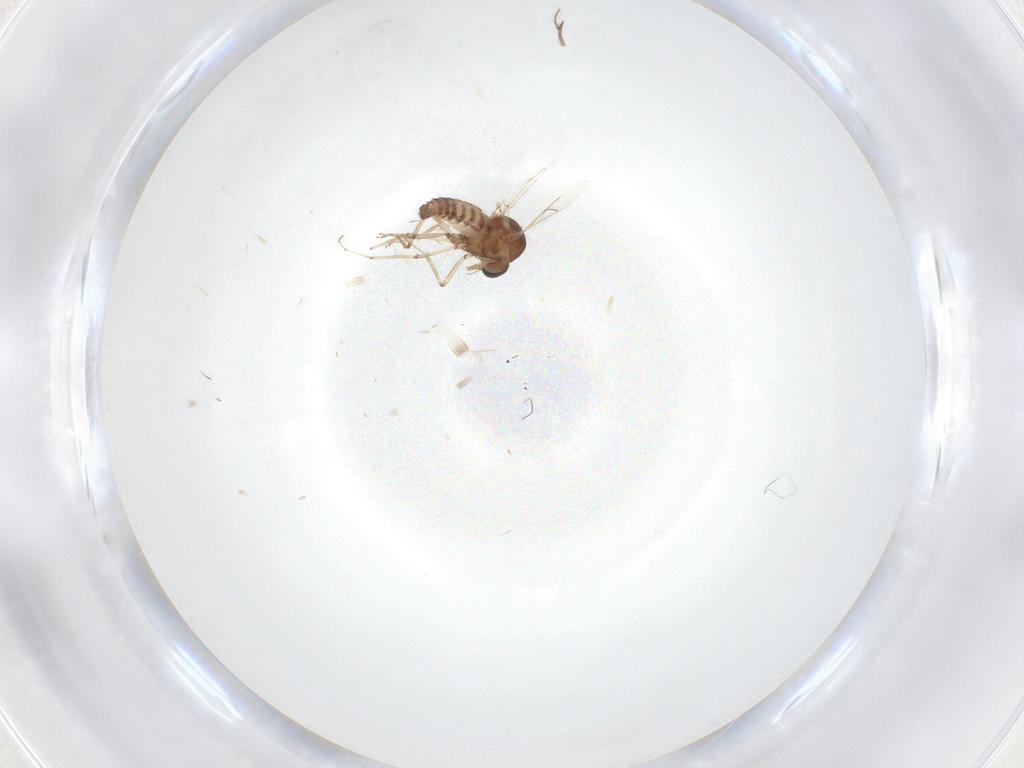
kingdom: Animalia
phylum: Arthropoda
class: Insecta
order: Diptera
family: Ceratopogonidae
